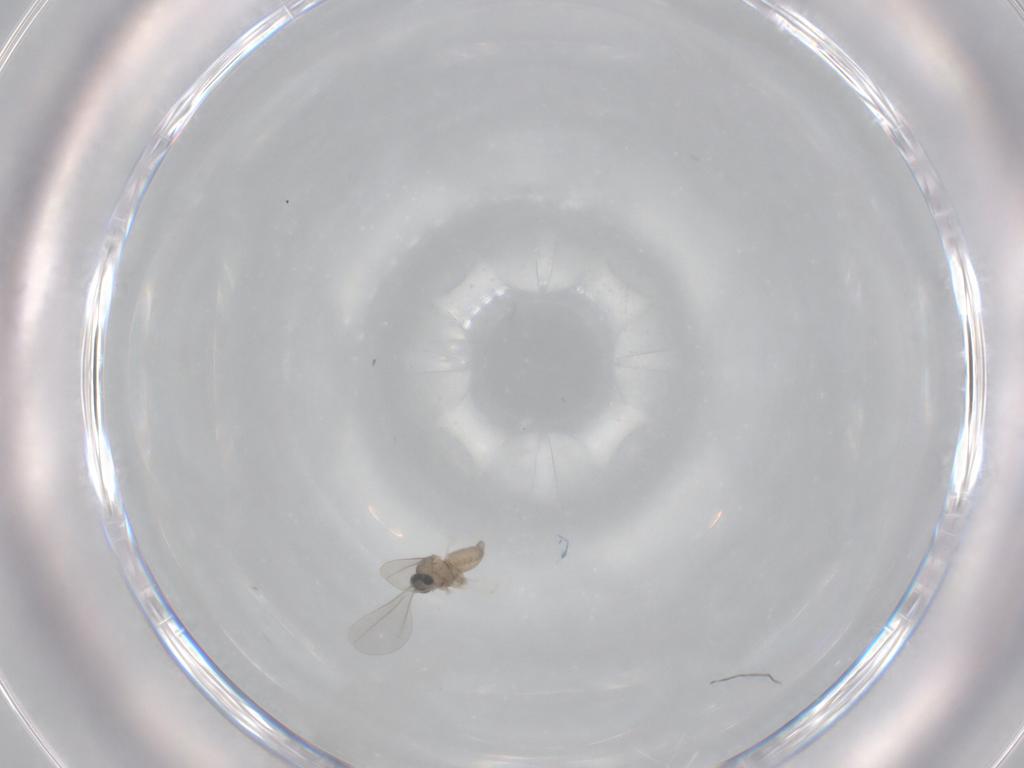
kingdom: Animalia
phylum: Arthropoda
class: Insecta
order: Diptera
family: Cecidomyiidae
